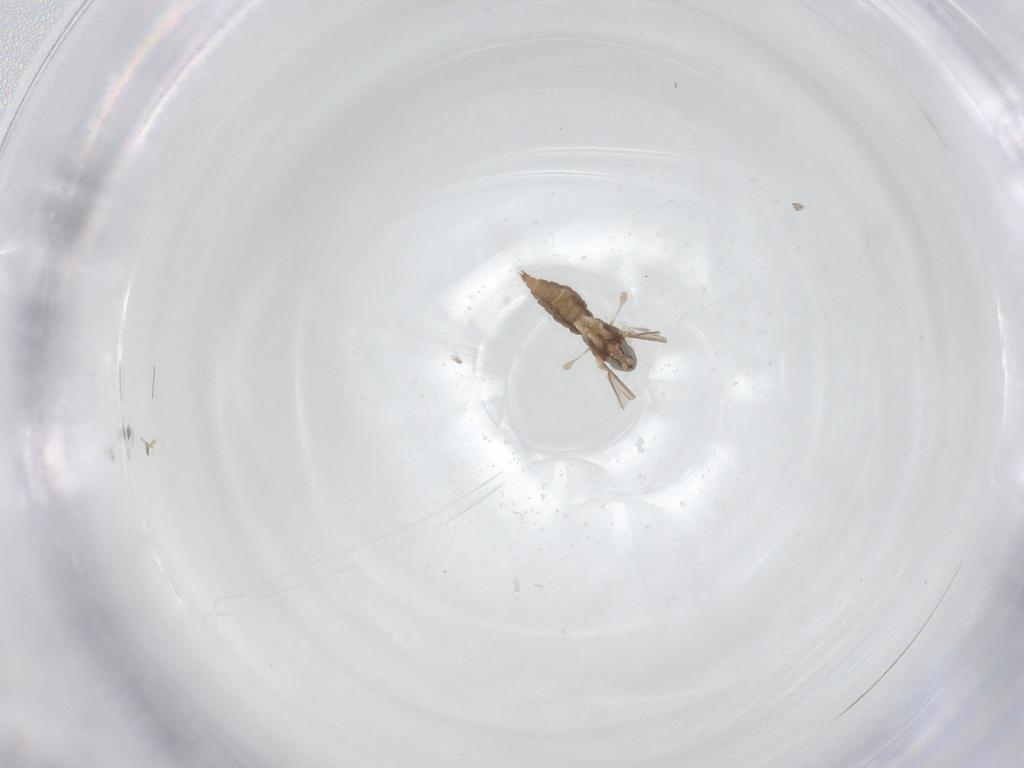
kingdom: Animalia
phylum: Arthropoda
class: Insecta
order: Diptera
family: Cecidomyiidae
